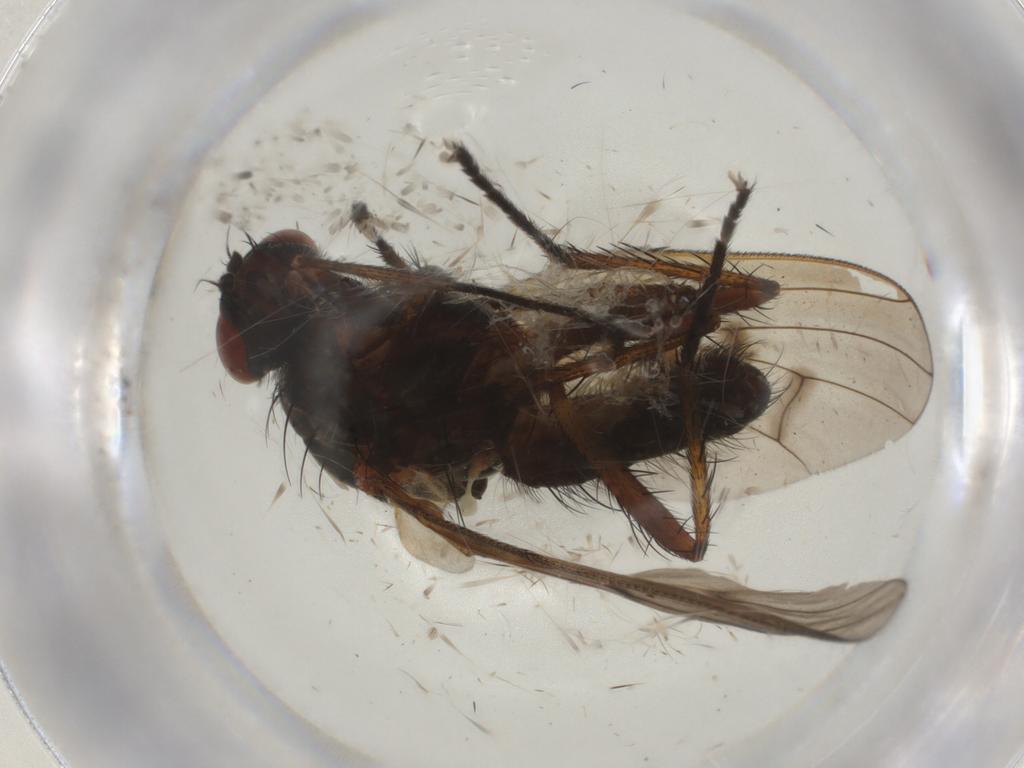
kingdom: Animalia
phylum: Arthropoda
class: Insecta
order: Diptera
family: Anthomyiidae
